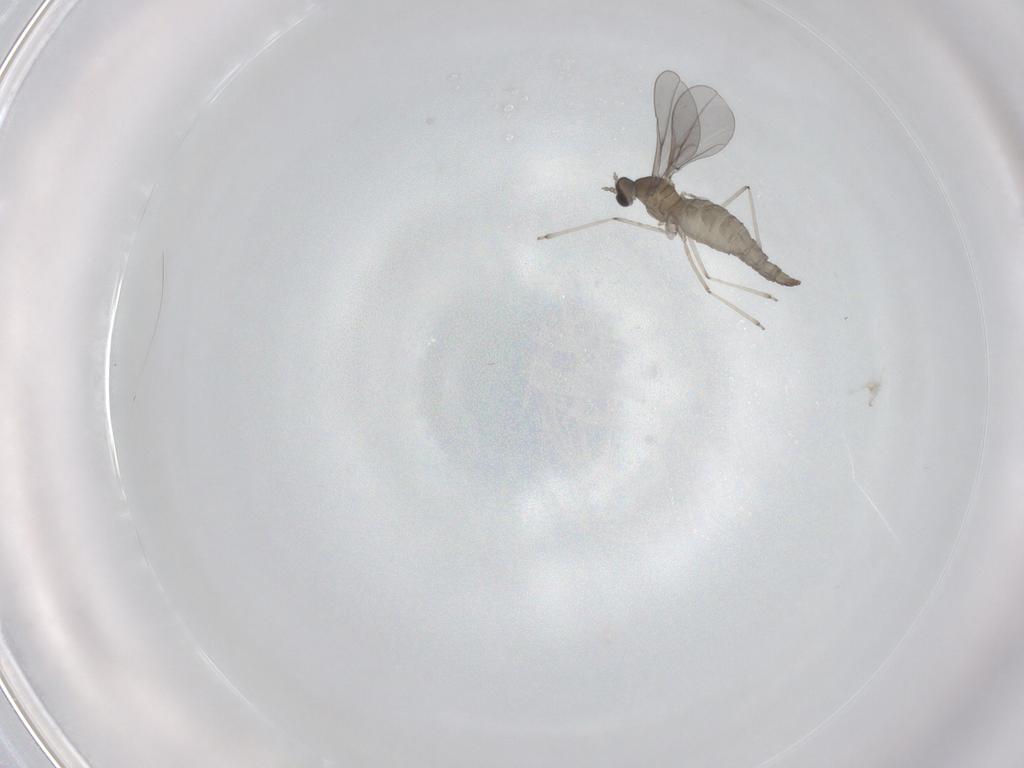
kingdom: Animalia
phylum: Arthropoda
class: Insecta
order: Diptera
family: Cecidomyiidae
